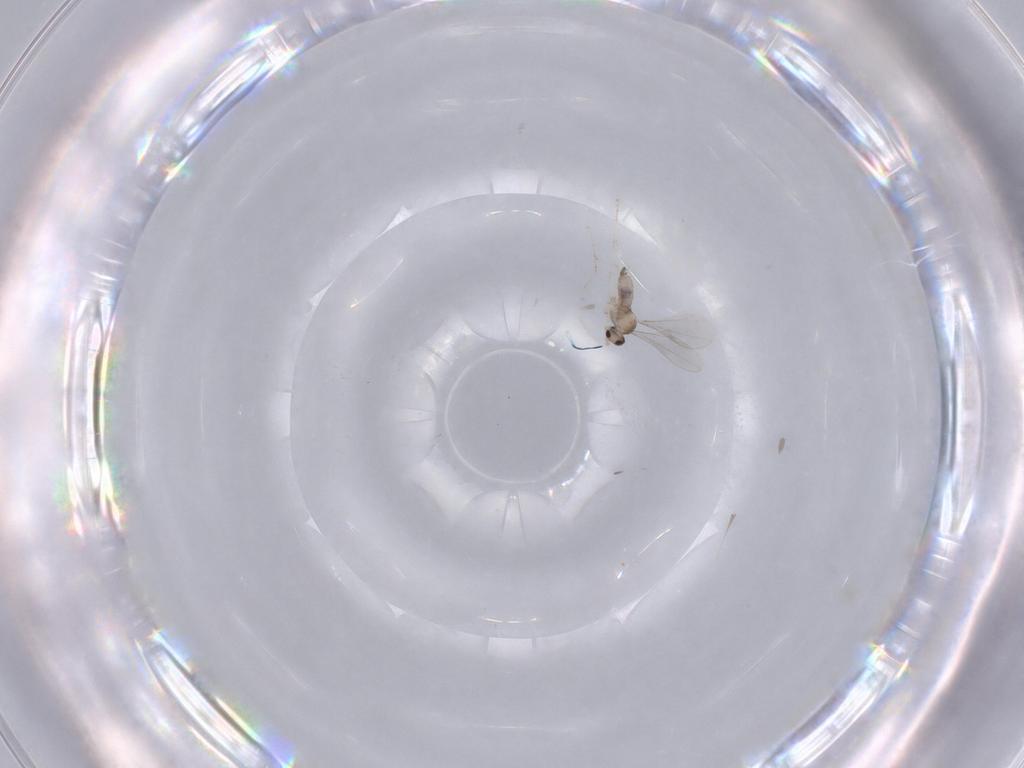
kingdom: Animalia
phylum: Arthropoda
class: Insecta
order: Diptera
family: Cecidomyiidae
